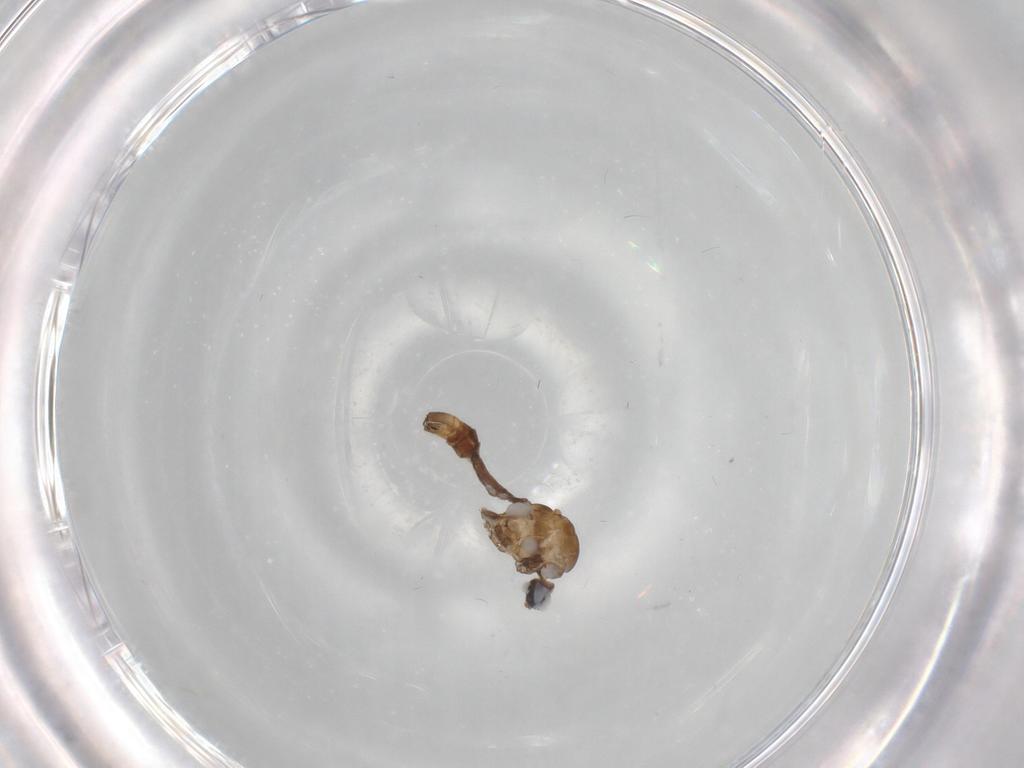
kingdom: Animalia
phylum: Arthropoda
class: Insecta
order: Diptera
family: Limoniidae
